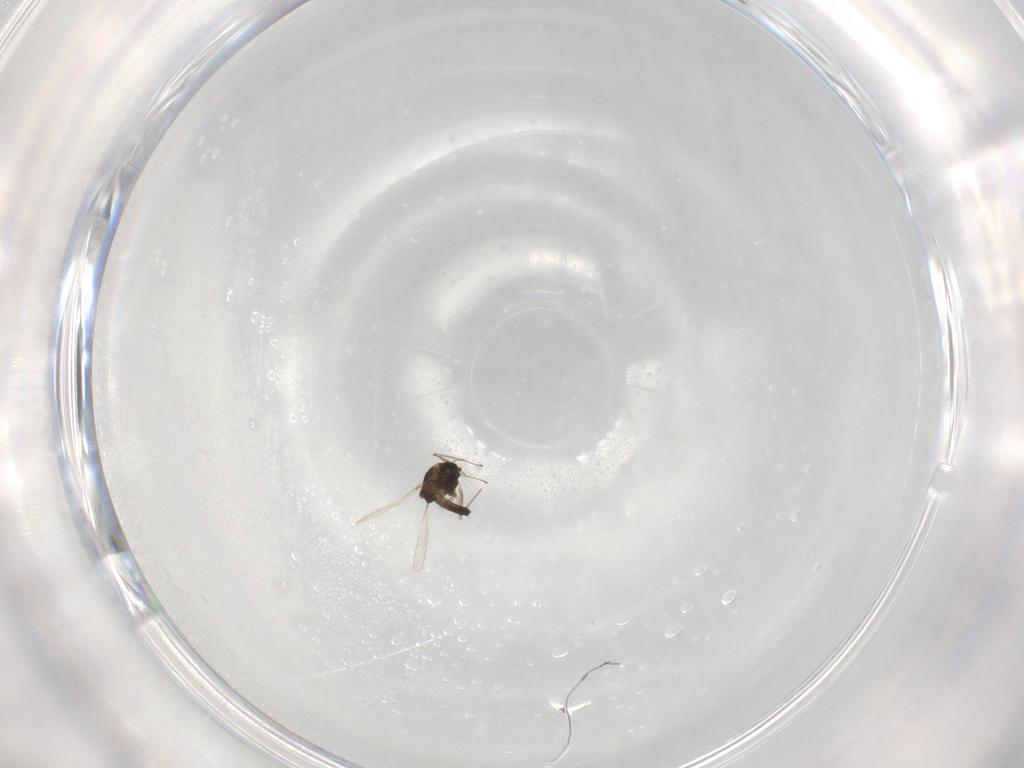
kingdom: Animalia
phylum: Arthropoda
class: Insecta
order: Diptera
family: Chironomidae
